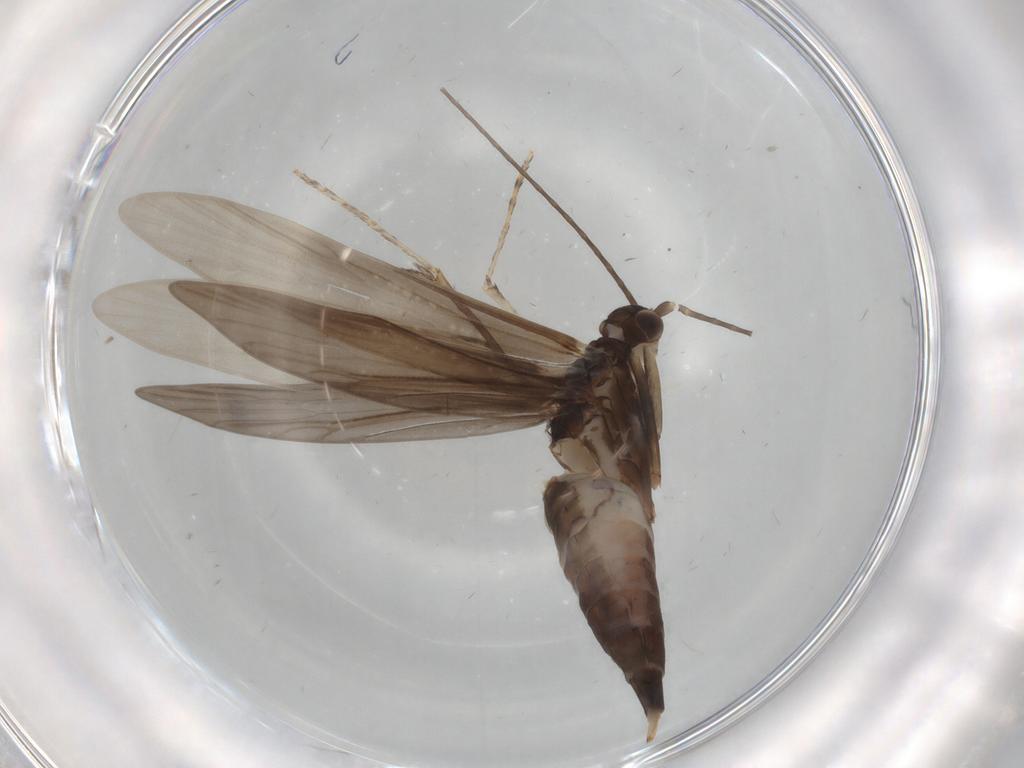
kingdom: Animalia
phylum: Arthropoda
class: Insecta
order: Trichoptera
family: Xiphocentronidae
